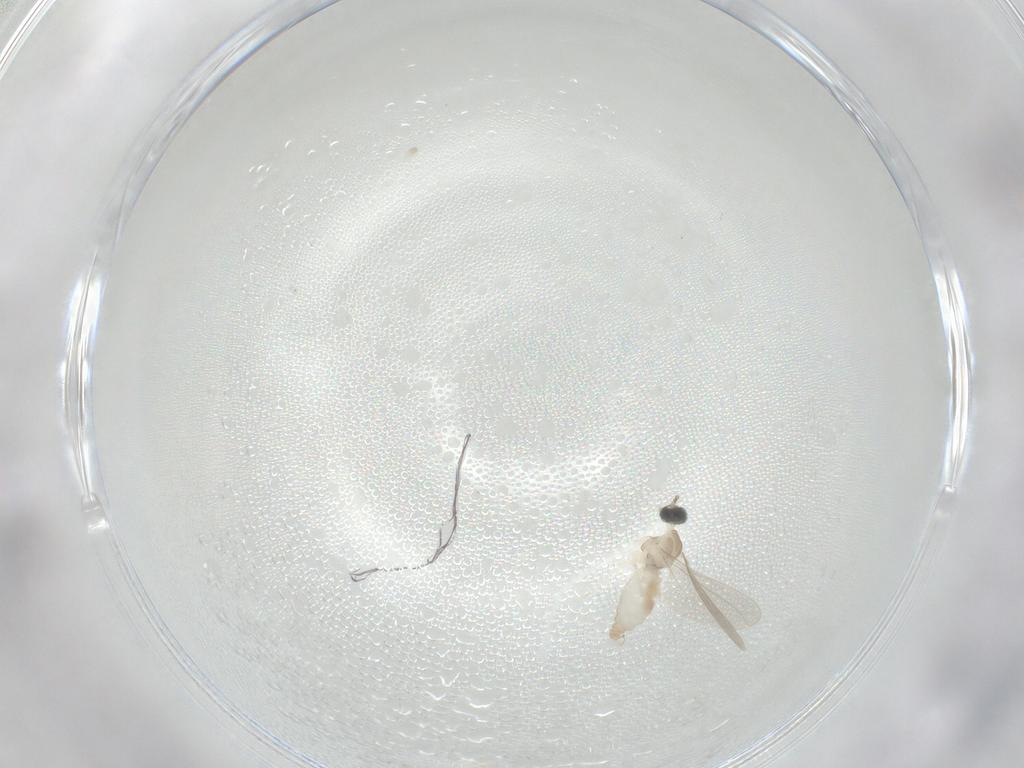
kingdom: Animalia
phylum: Arthropoda
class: Insecta
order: Diptera
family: Cecidomyiidae
